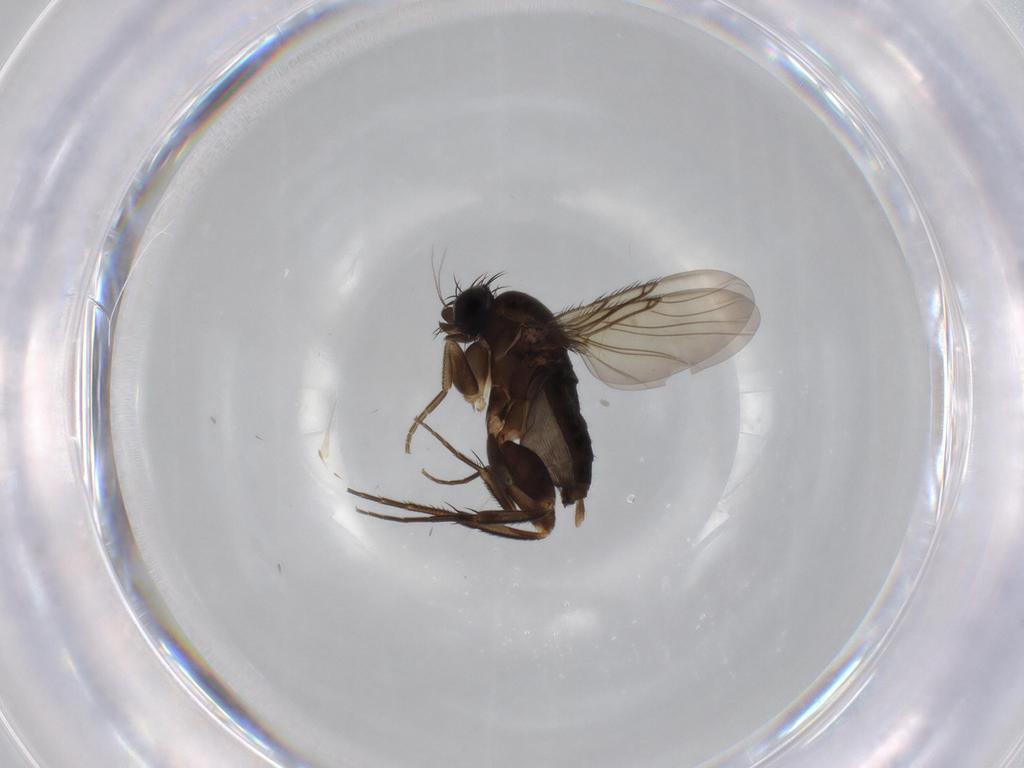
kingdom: Animalia
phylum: Arthropoda
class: Insecta
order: Diptera
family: Phoridae
